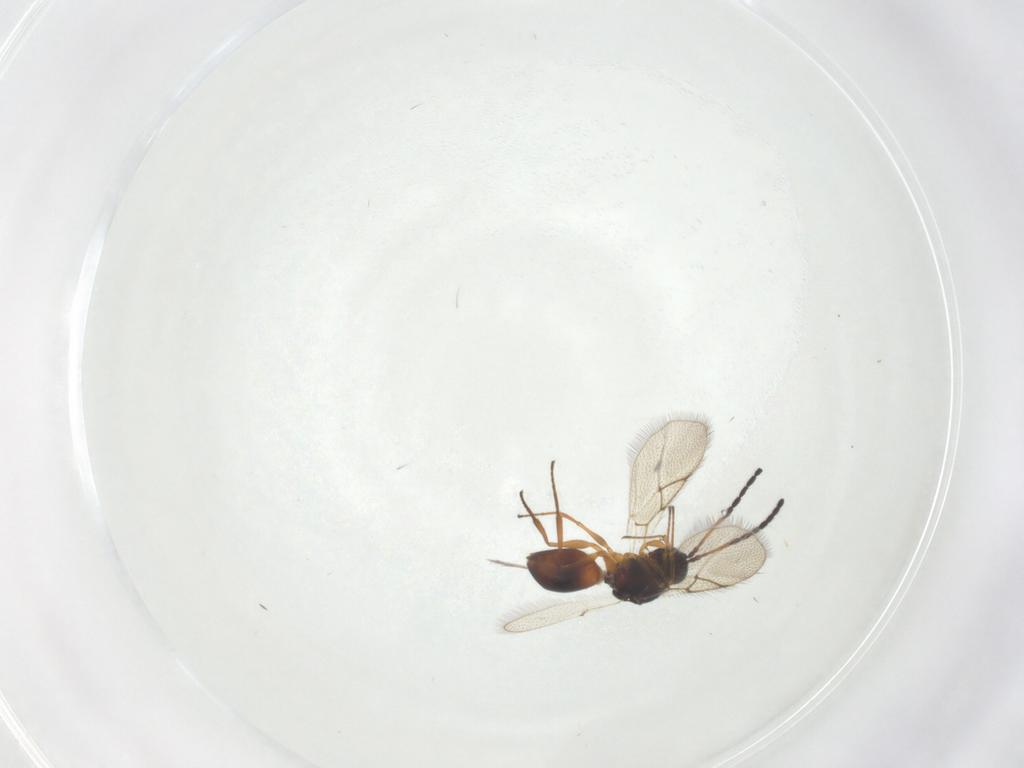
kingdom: Animalia
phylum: Arthropoda
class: Insecta
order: Hymenoptera
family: Figitidae
